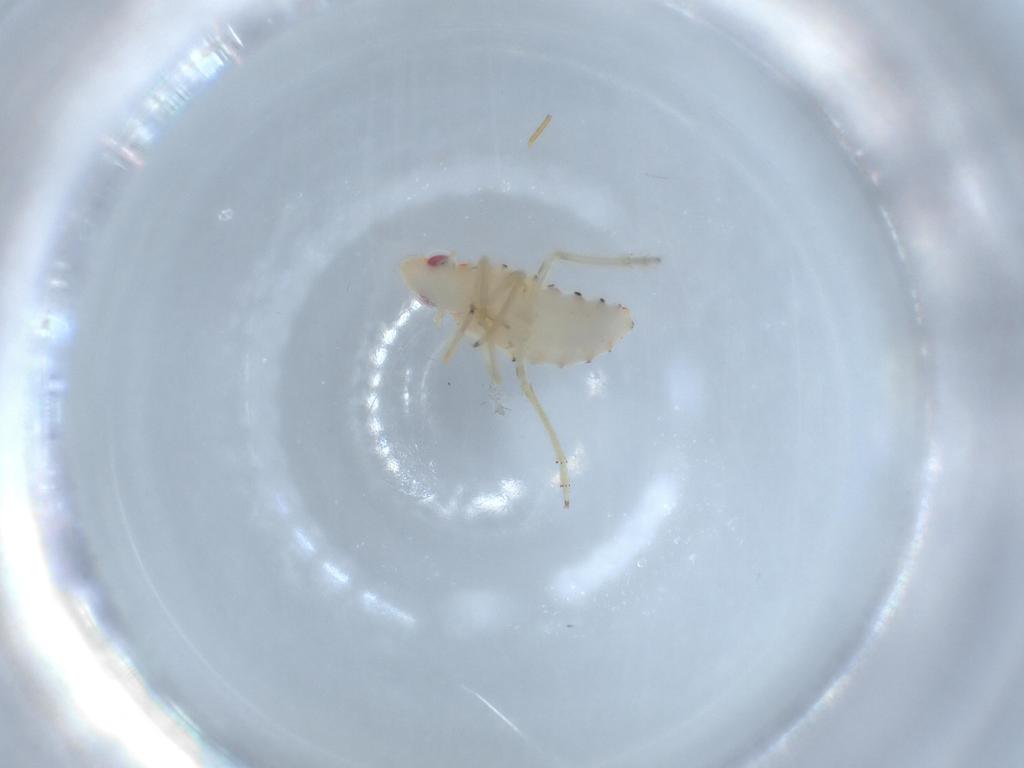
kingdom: Animalia
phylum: Arthropoda
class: Insecta
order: Hemiptera
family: Tropiduchidae
